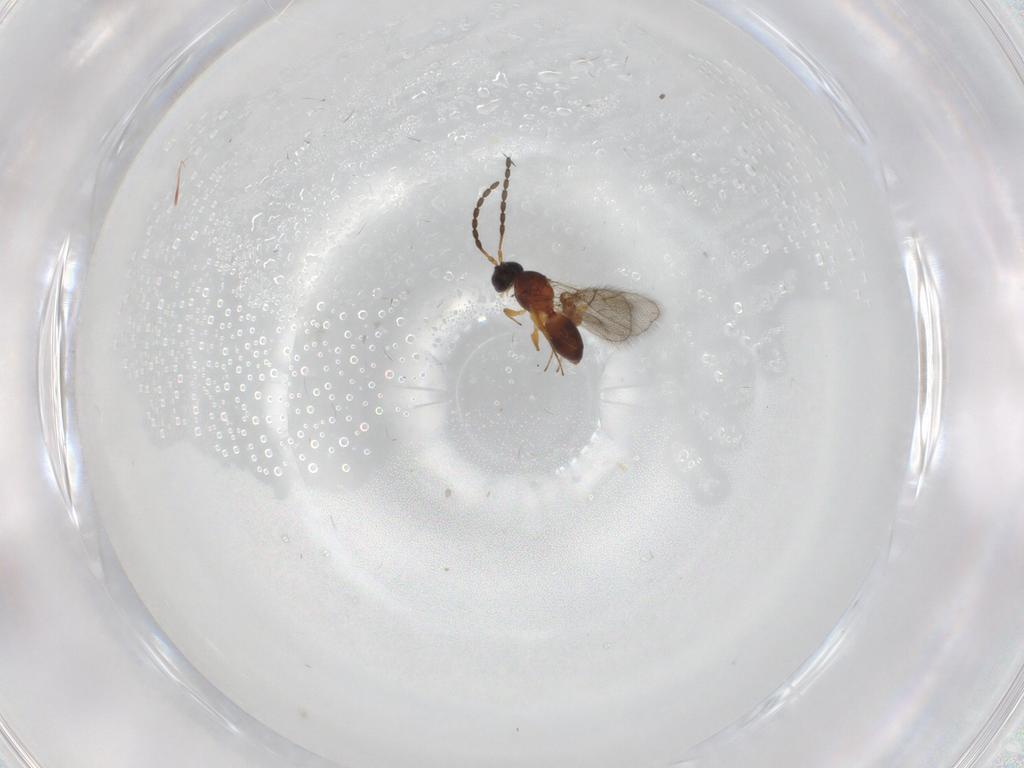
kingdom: Animalia
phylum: Arthropoda
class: Insecta
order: Hymenoptera
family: Figitidae
